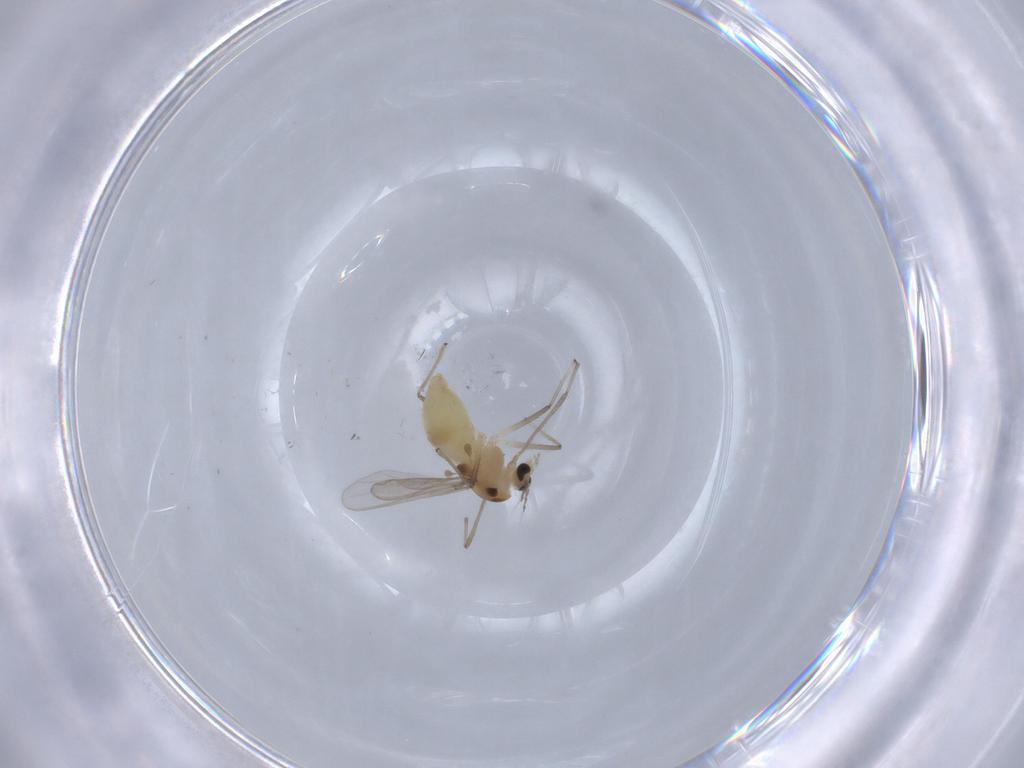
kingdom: Animalia
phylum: Arthropoda
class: Insecta
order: Diptera
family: Chironomidae
